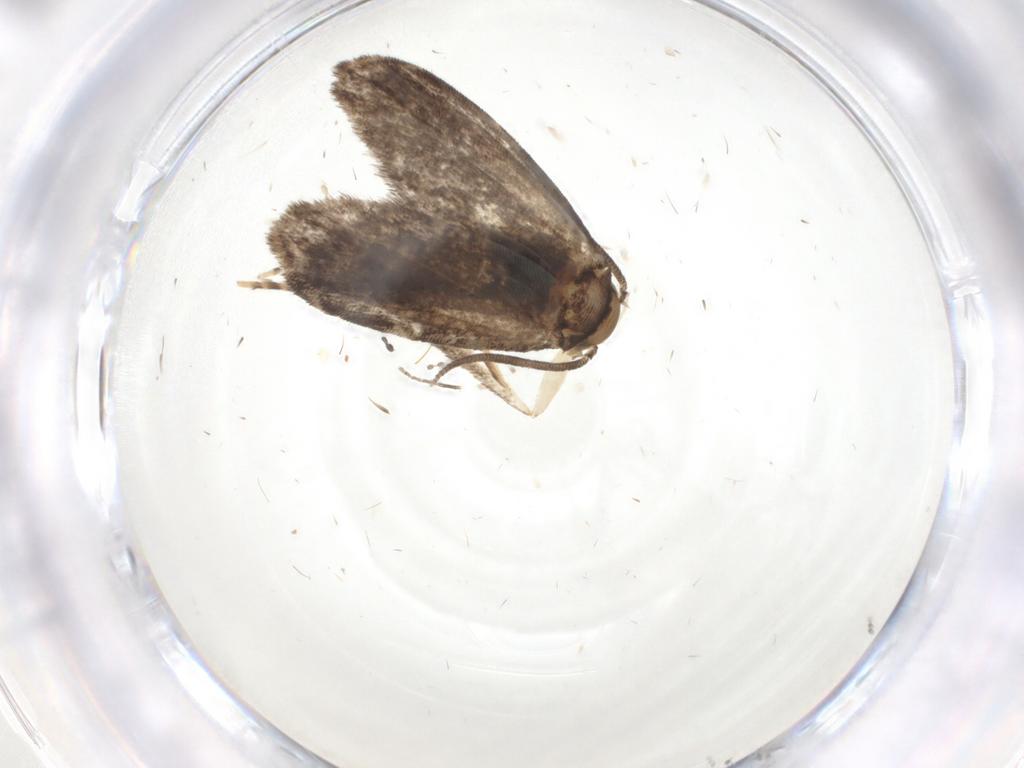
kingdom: Animalia
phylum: Arthropoda
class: Insecta
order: Lepidoptera
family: Dryadaulidae
